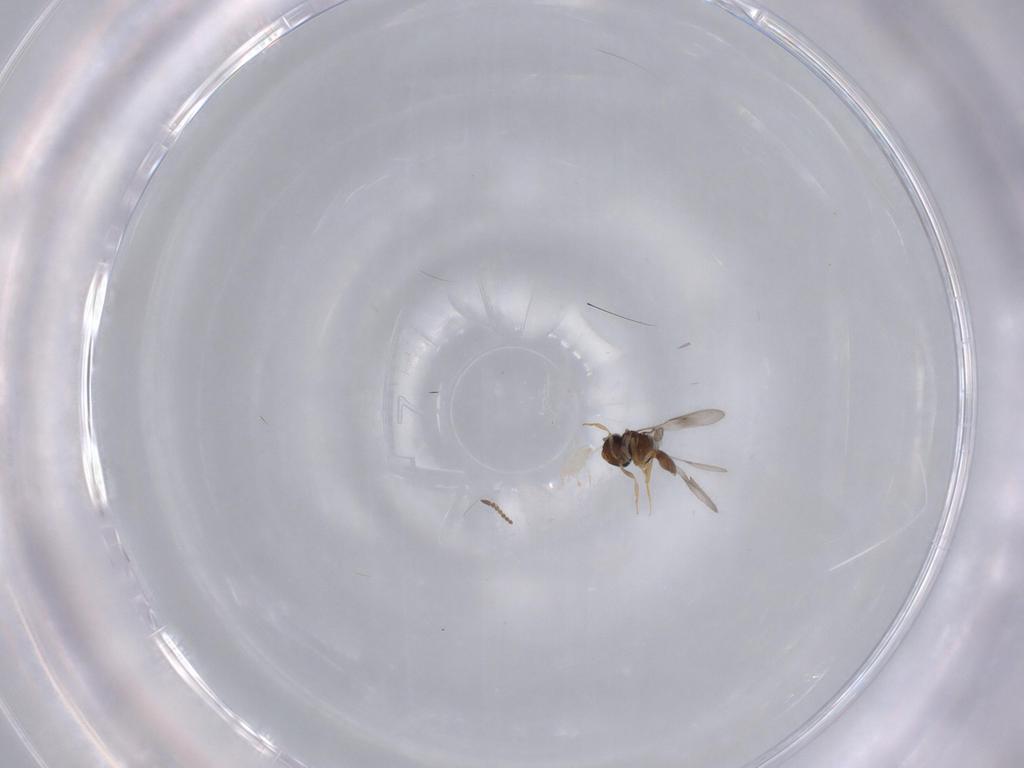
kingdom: Animalia
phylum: Arthropoda
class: Insecta
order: Hymenoptera
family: Scelionidae
